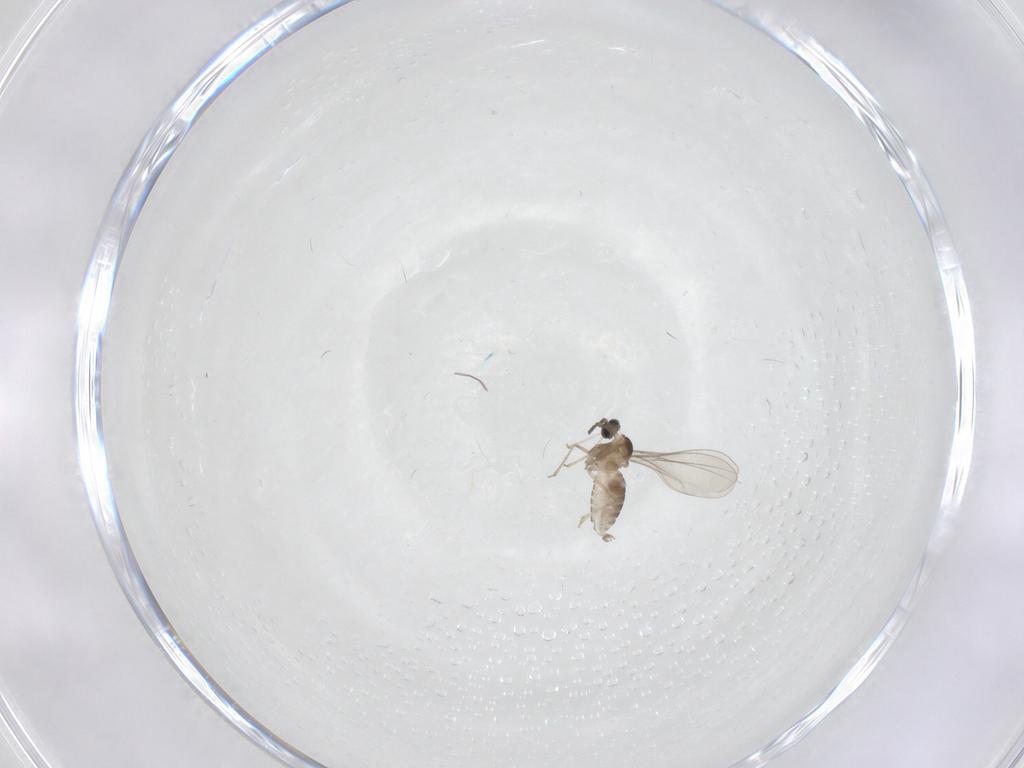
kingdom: Animalia
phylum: Arthropoda
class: Insecta
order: Diptera
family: Cecidomyiidae
